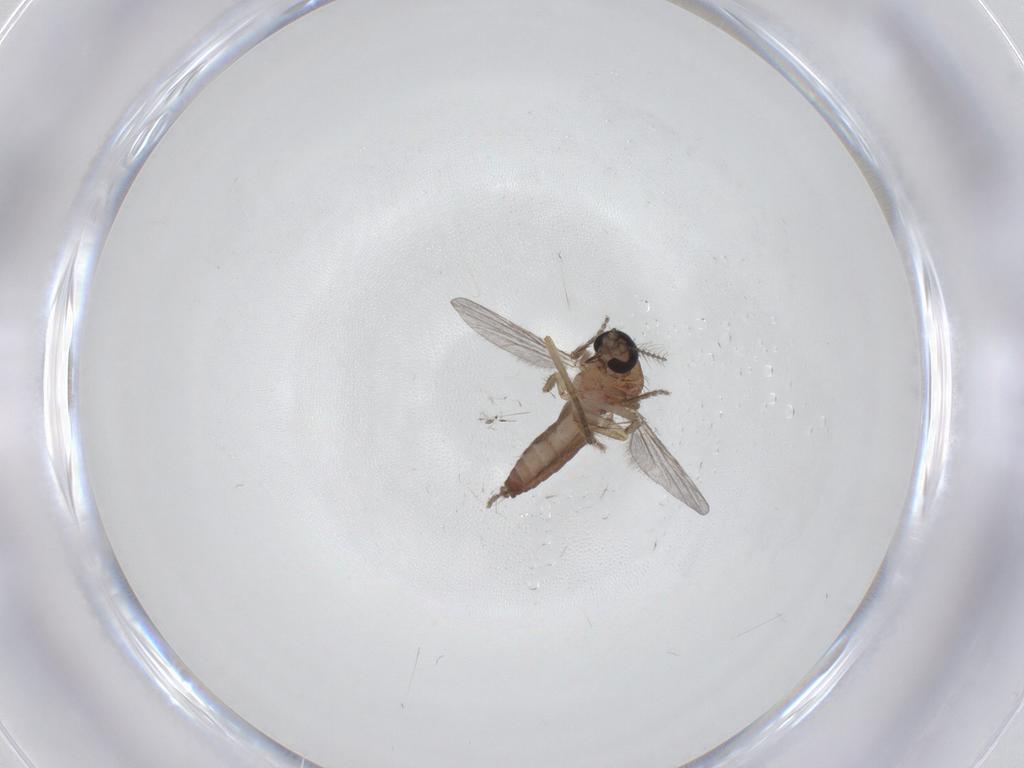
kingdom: Animalia
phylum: Arthropoda
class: Insecta
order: Diptera
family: Ceratopogonidae
